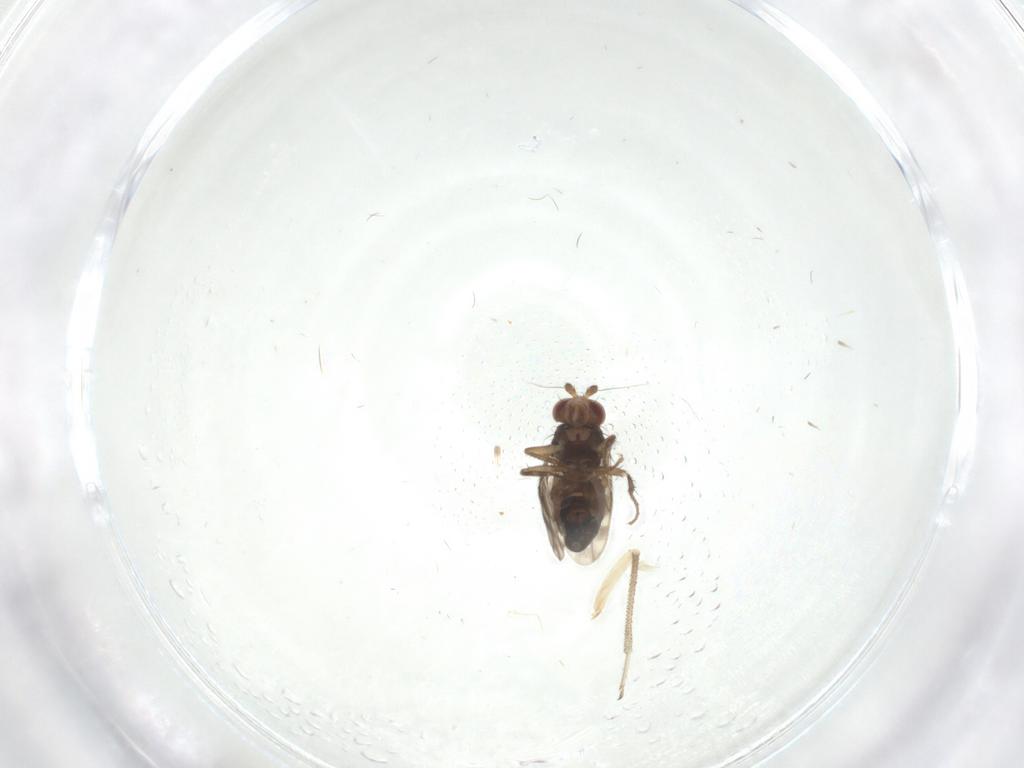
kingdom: Animalia
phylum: Arthropoda
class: Insecta
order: Diptera
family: Sphaeroceridae
